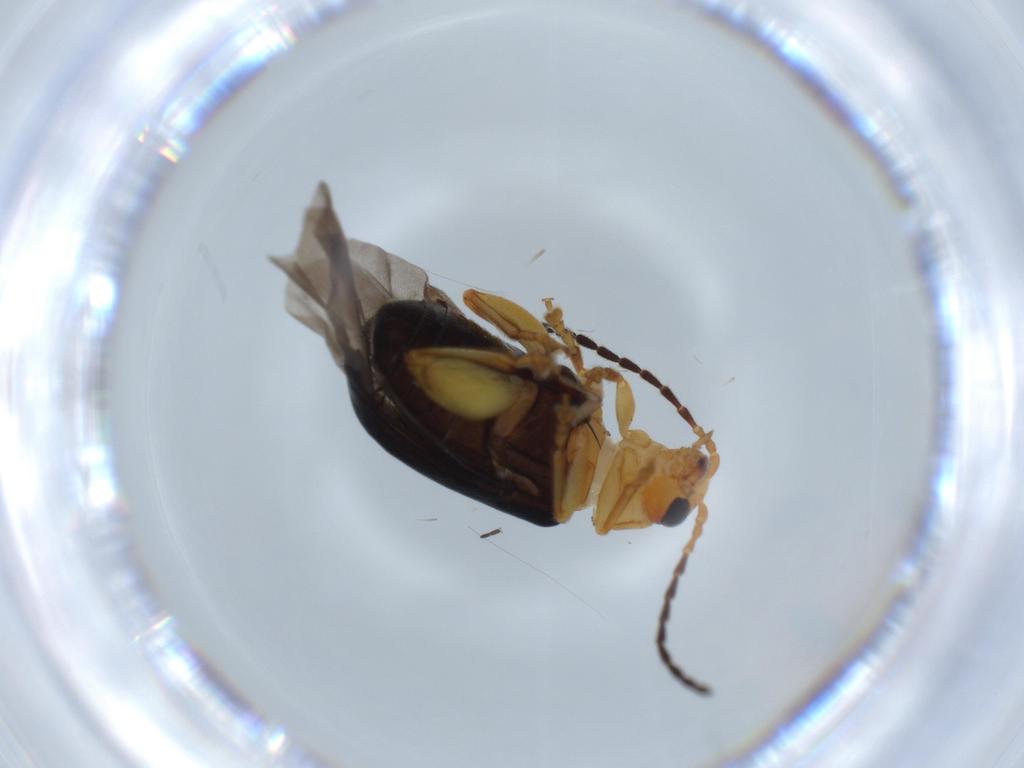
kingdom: Animalia
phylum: Arthropoda
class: Insecta
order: Coleoptera
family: Chrysomelidae
